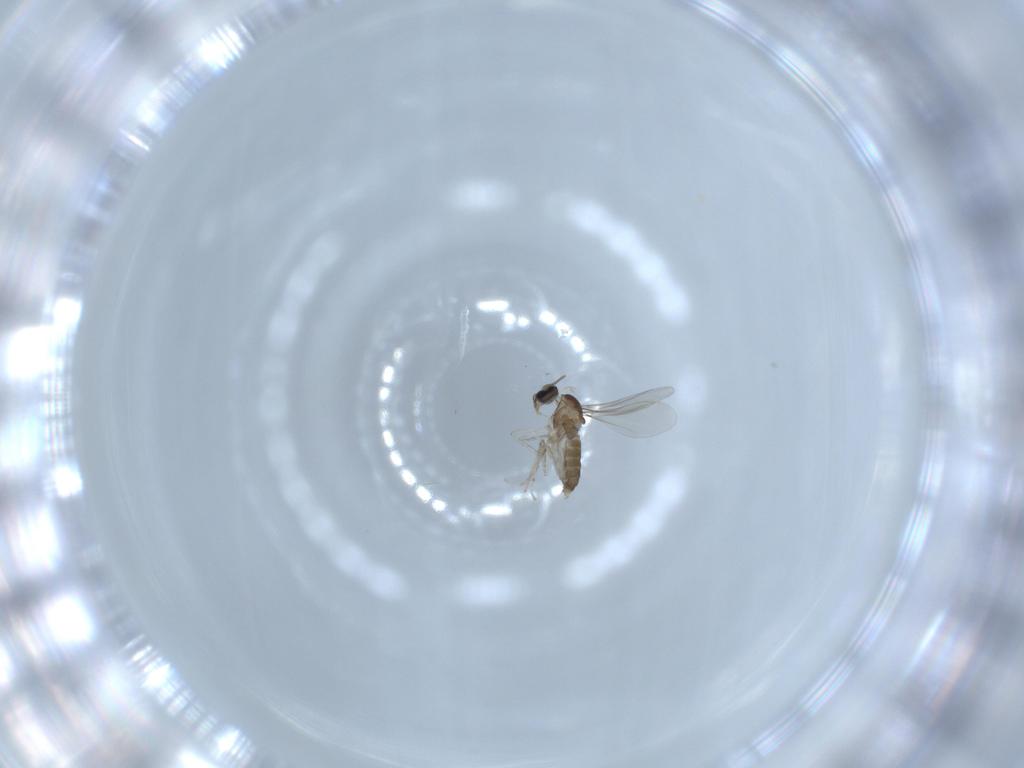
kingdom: Animalia
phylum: Arthropoda
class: Insecta
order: Diptera
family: Cecidomyiidae
